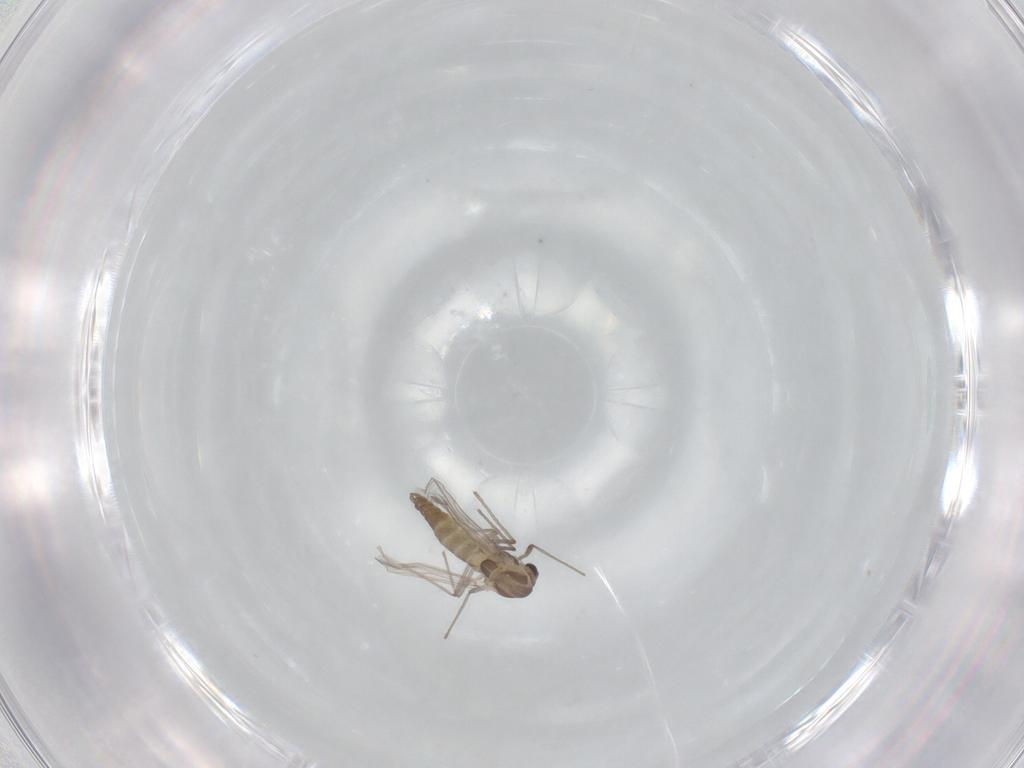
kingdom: Animalia
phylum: Arthropoda
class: Insecta
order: Diptera
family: Chironomidae
